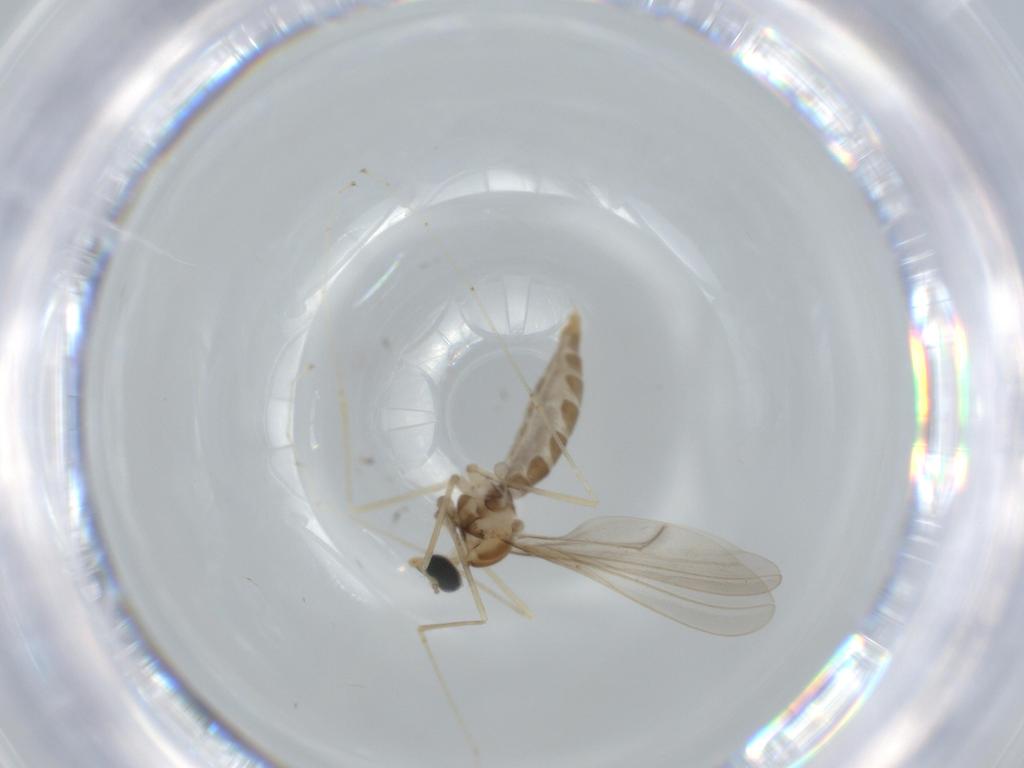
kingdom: Animalia
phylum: Arthropoda
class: Insecta
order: Diptera
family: Cecidomyiidae
